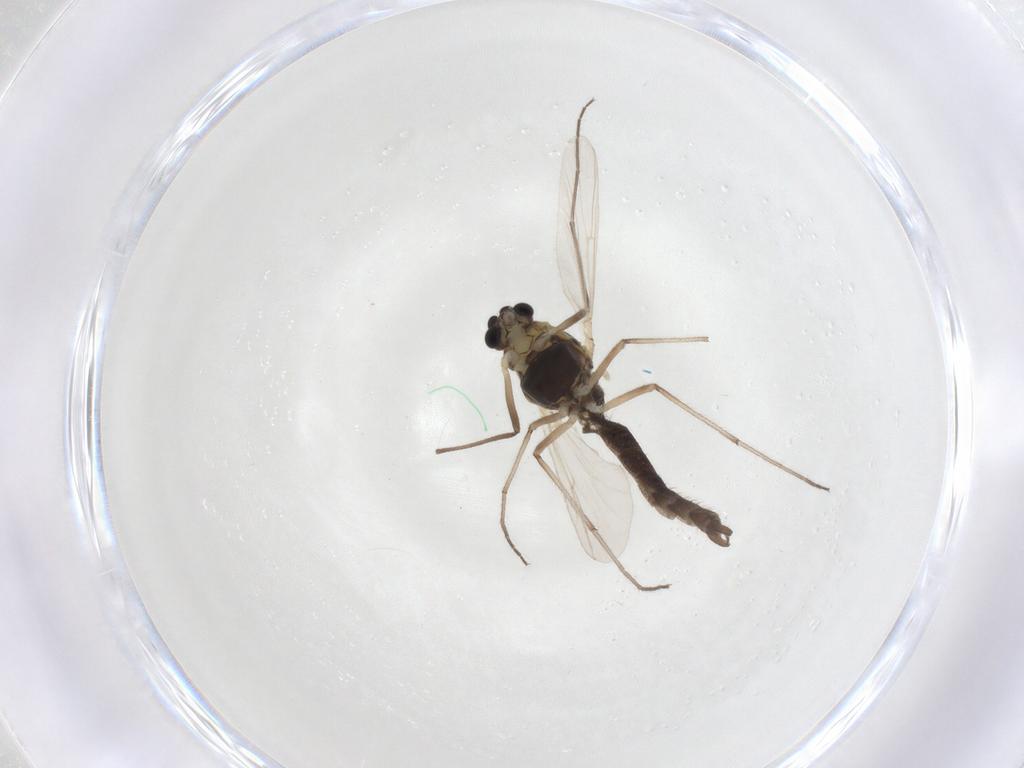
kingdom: Animalia
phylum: Arthropoda
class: Insecta
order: Diptera
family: Chironomidae
